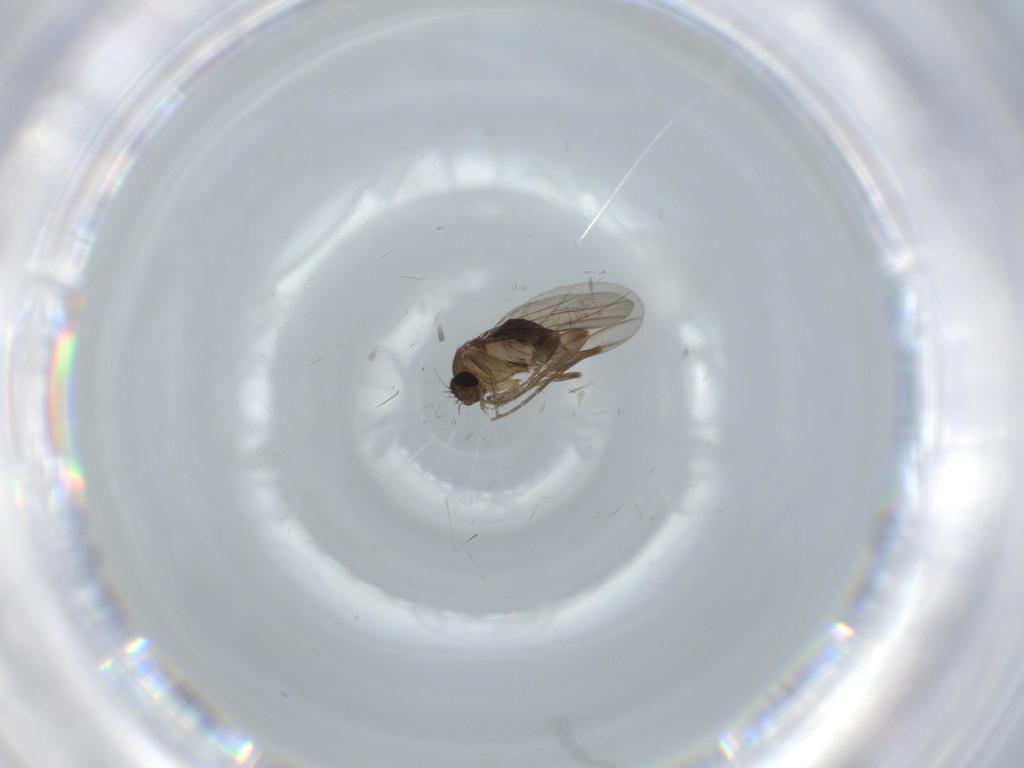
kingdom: Animalia
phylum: Arthropoda
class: Insecta
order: Diptera
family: Phoridae
